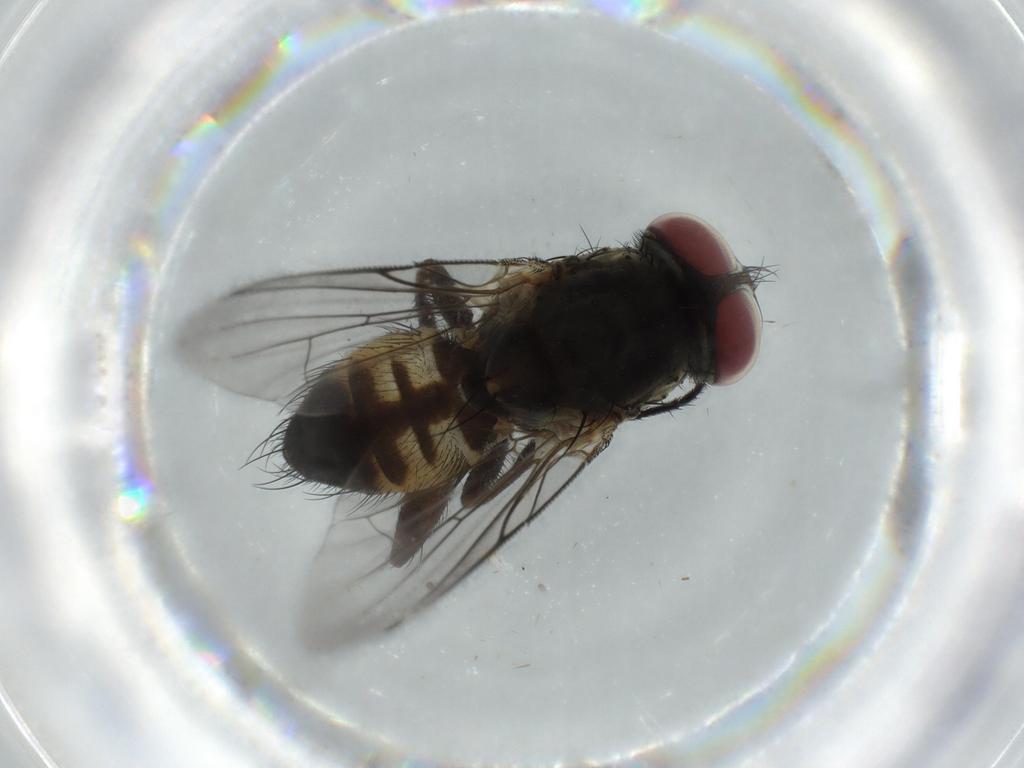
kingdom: Animalia
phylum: Arthropoda
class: Insecta
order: Diptera
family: Fannia
